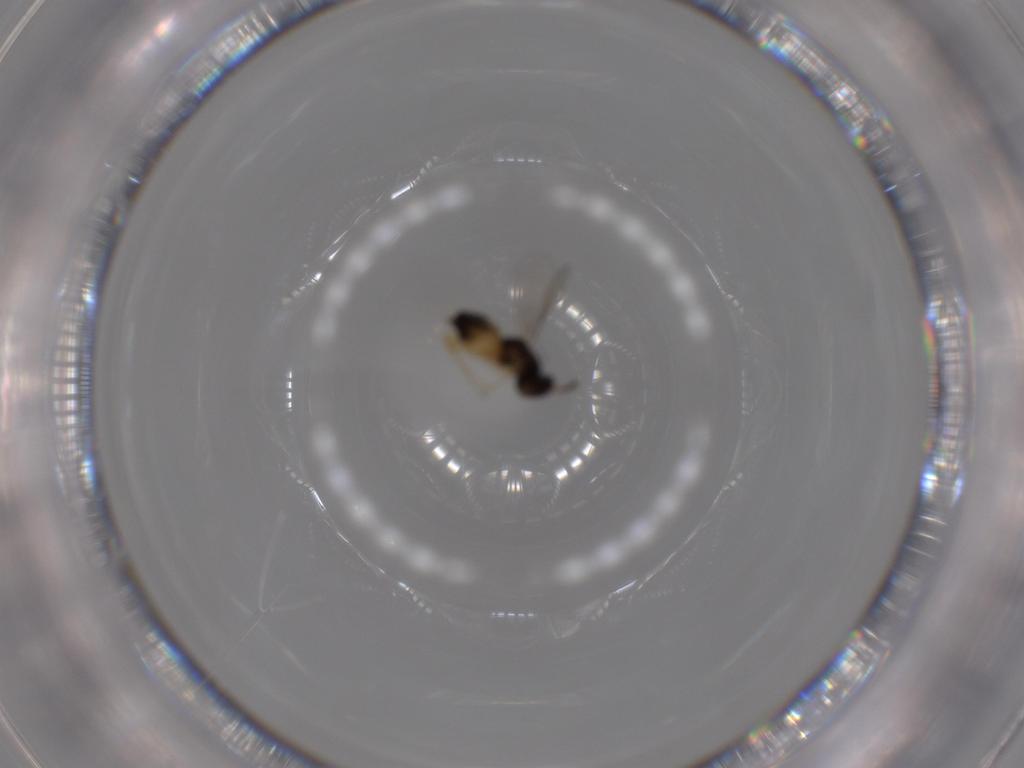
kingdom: Animalia
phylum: Arthropoda
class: Insecta
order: Hymenoptera
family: Eulophidae
